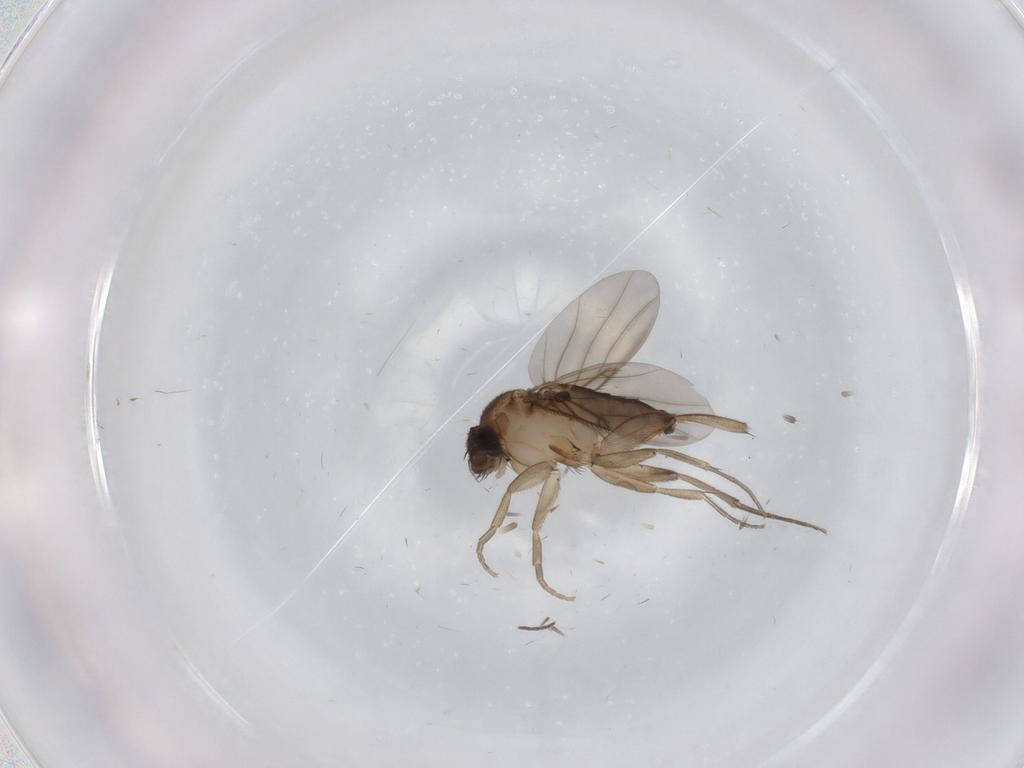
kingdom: Animalia
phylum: Arthropoda
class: Insecta
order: Diptera
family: Phoridae
